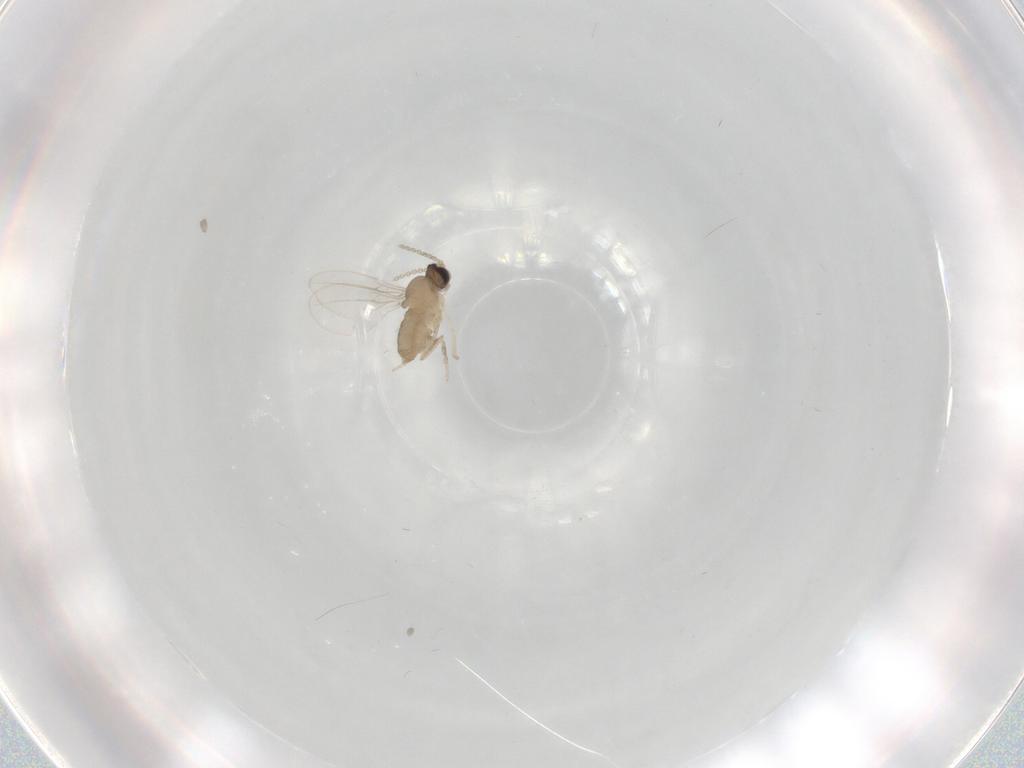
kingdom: Animalia
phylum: Arthropoda
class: Insecta
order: Diptera
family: Cecidomyiidae
